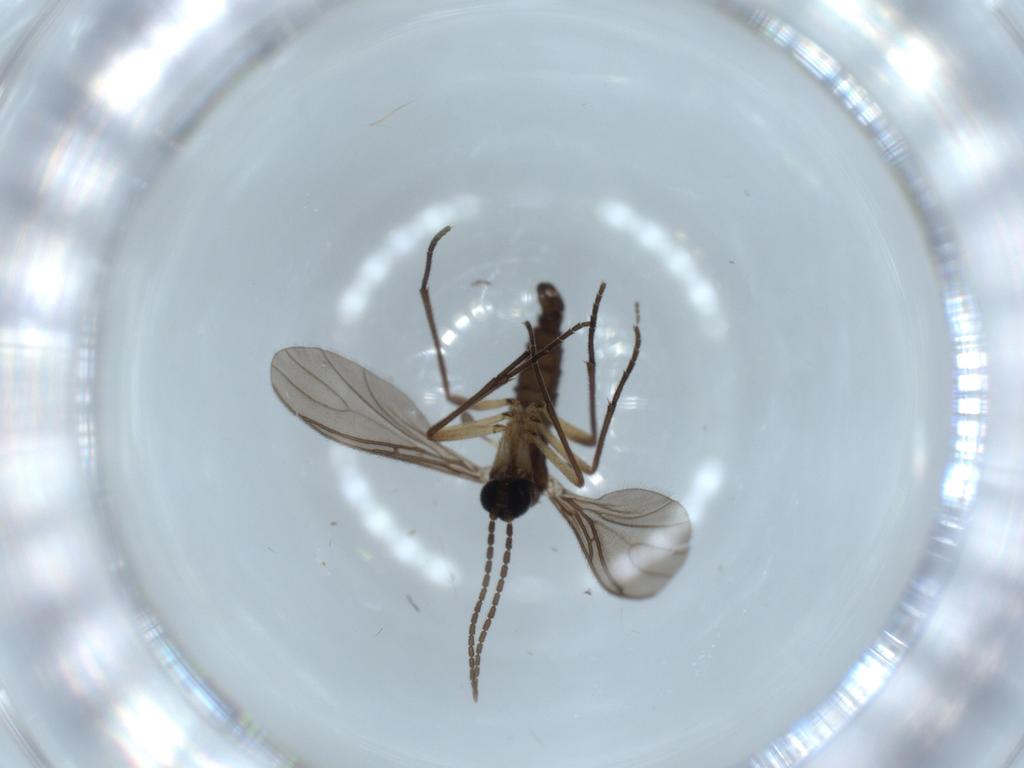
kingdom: Animalia
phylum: Arthropoda
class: Insecta
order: Diptera
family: Sciaridae
